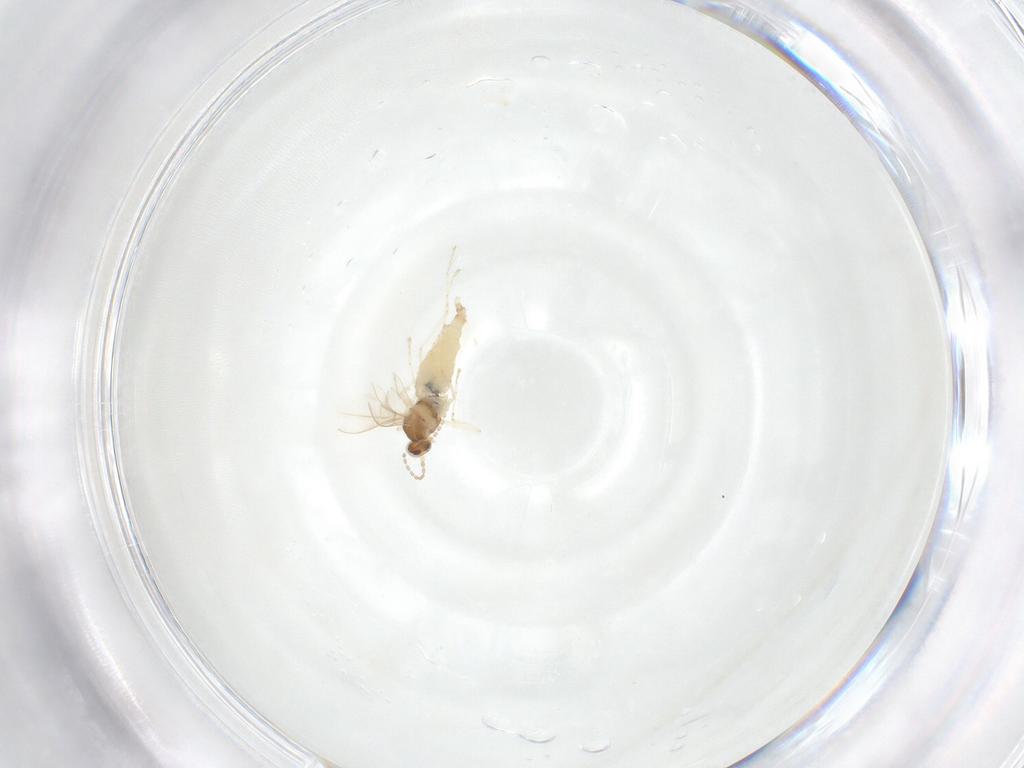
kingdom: Animalia
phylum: Arthropoda
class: Insecta
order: Diptera
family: Cecidomyiidae
